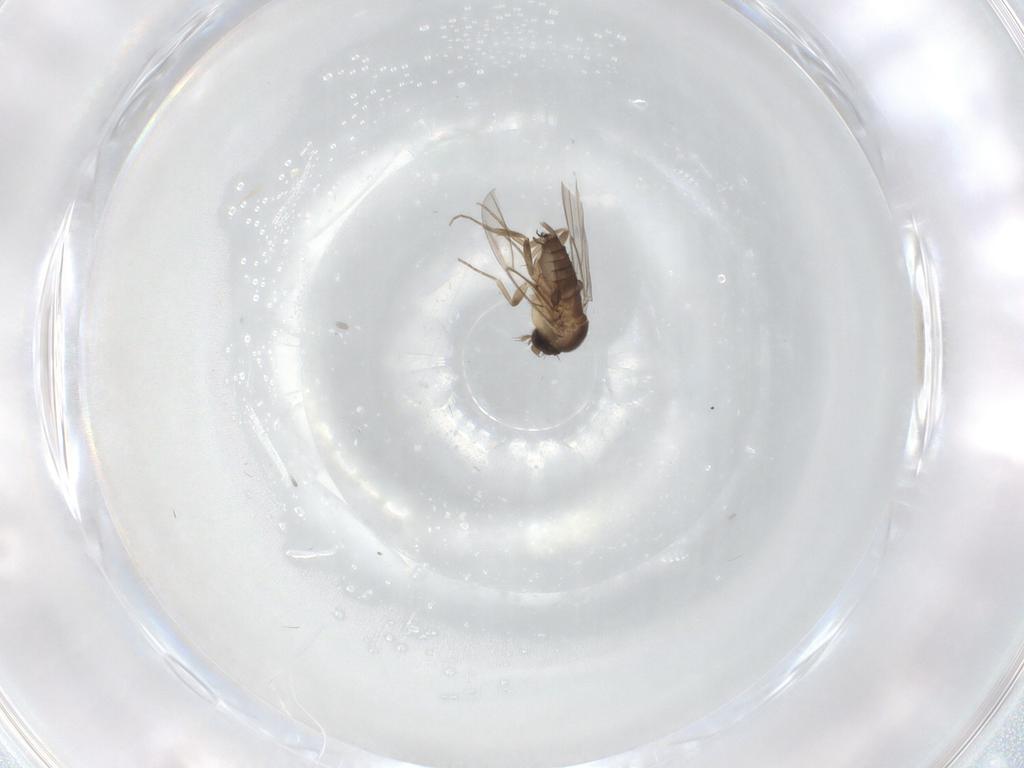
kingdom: Animalia
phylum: Arthropoda
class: Insecta
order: Diptera
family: Phoridae
